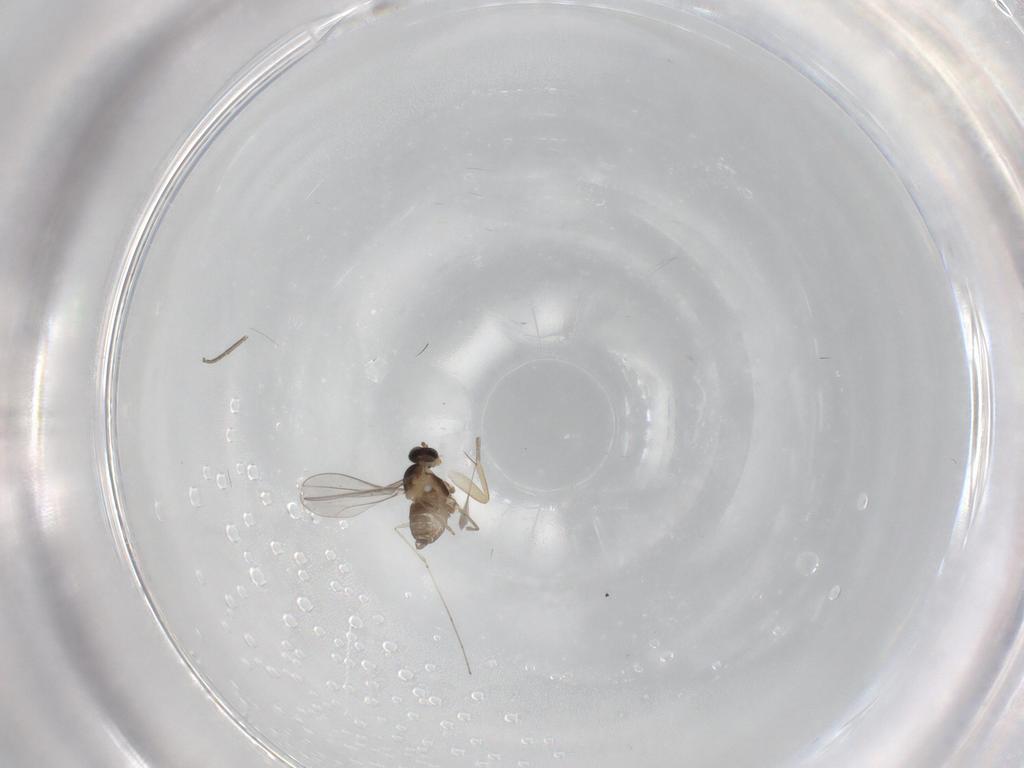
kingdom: Animalia
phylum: Arthropoda
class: Insecta
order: Diptera
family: Cecidomyiidae
